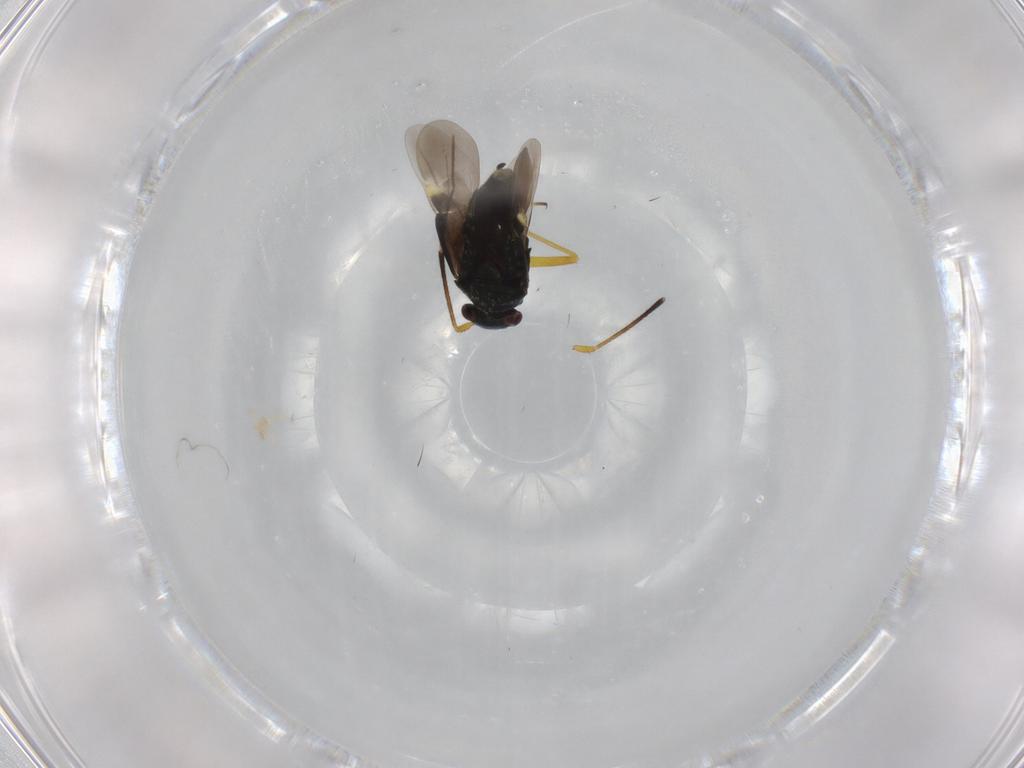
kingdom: Animalia
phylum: Arthropoda
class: Insecta
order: Hemiptera
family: Miridae
